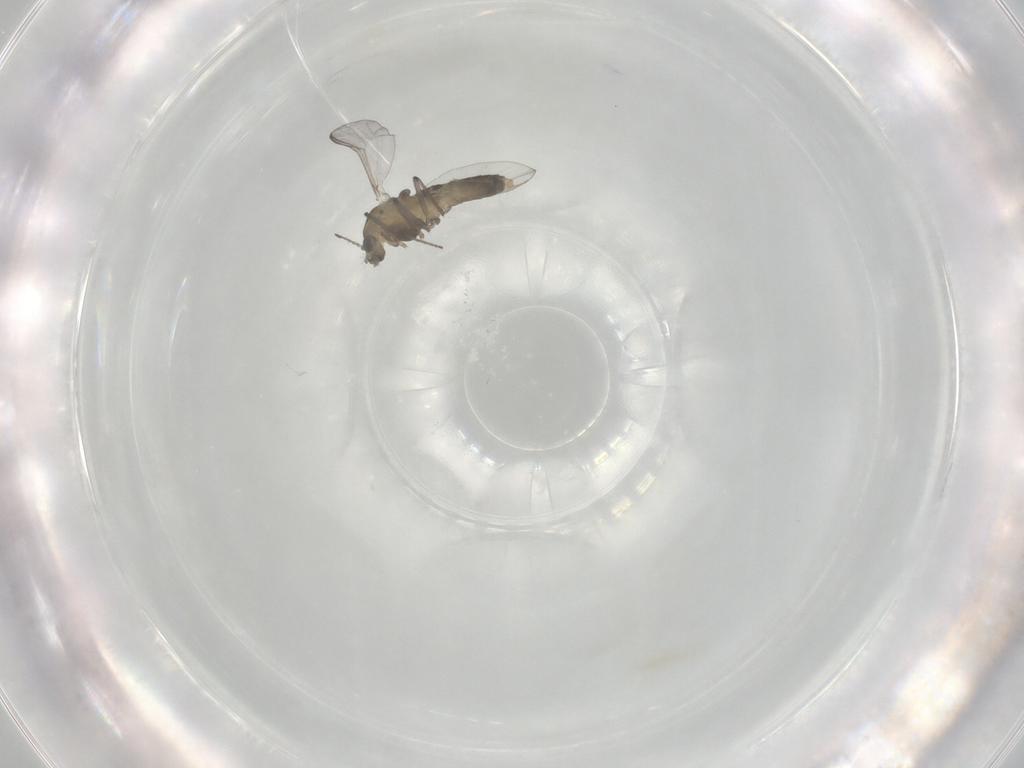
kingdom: Animalia
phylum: Arthropoda
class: Insecta
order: Diptera
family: Chironomidae
